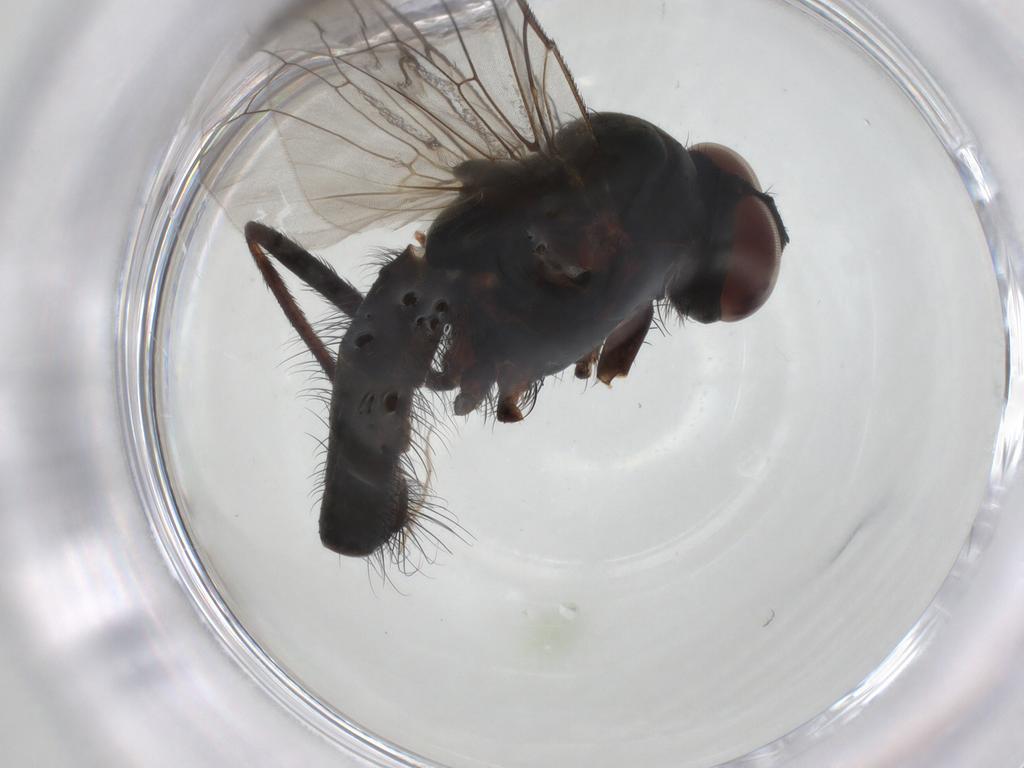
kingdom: Animalia
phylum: Arthropoda
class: Insecta
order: Diptera
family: Anthomyiidae
